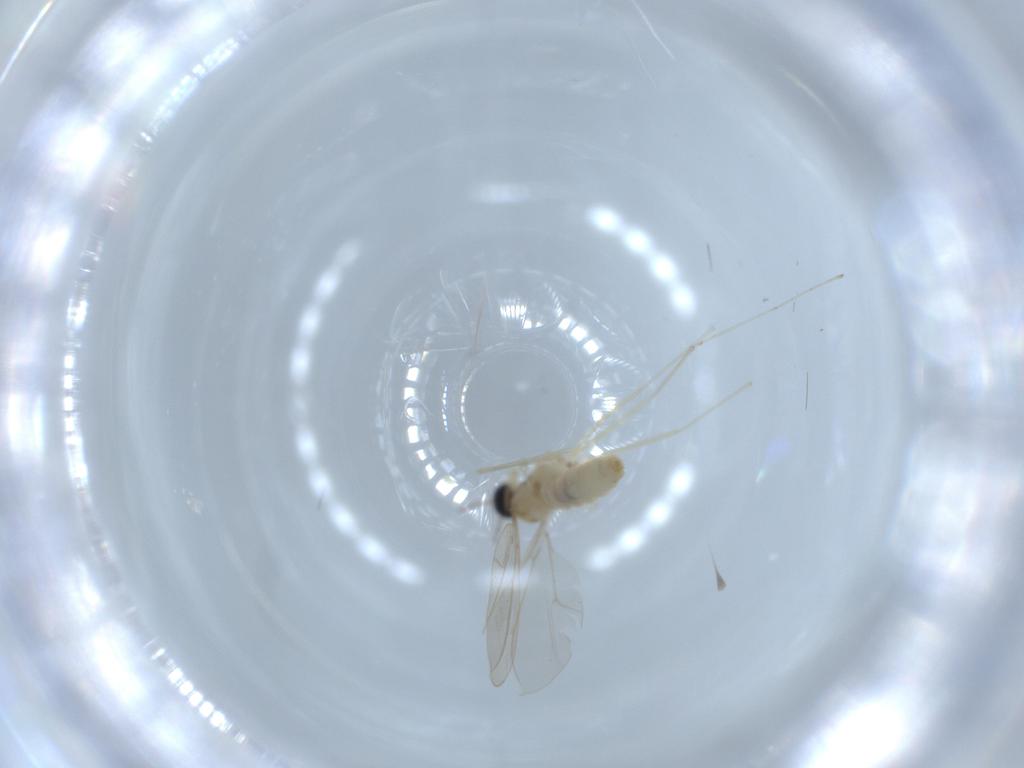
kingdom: Animalia
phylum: Arthropoda
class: Insecta
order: Diptera
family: Cecidomyiidae
